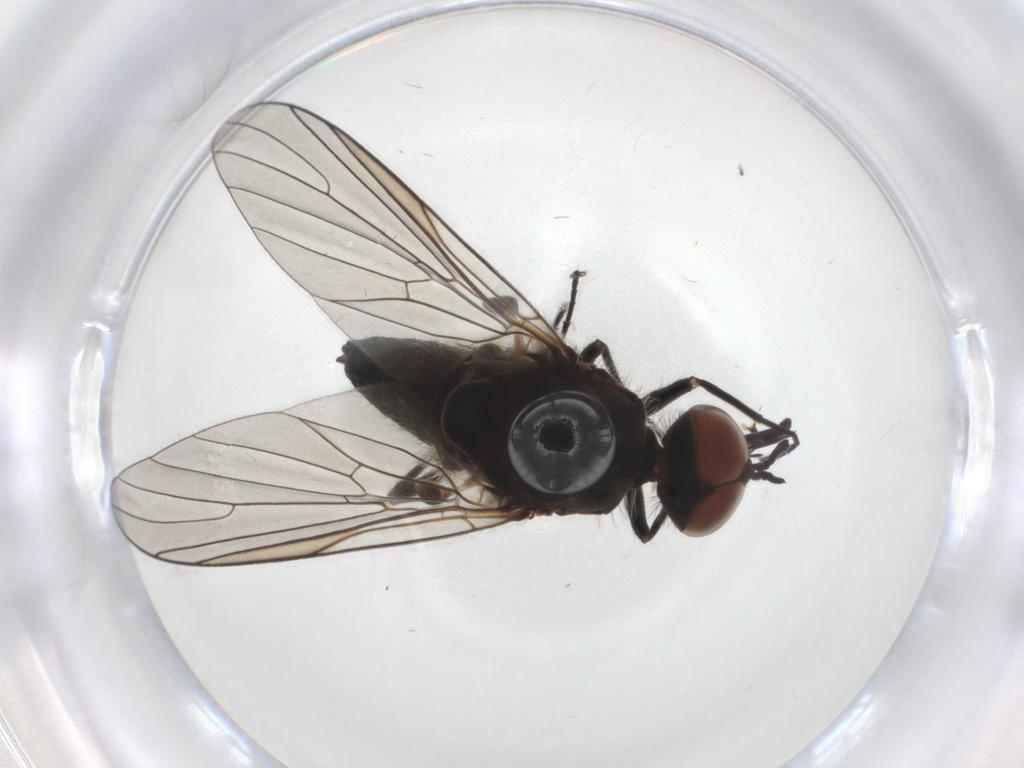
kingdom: Animalia
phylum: Arthropoda
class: Insecta
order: Diptera
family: Bombyliidae
